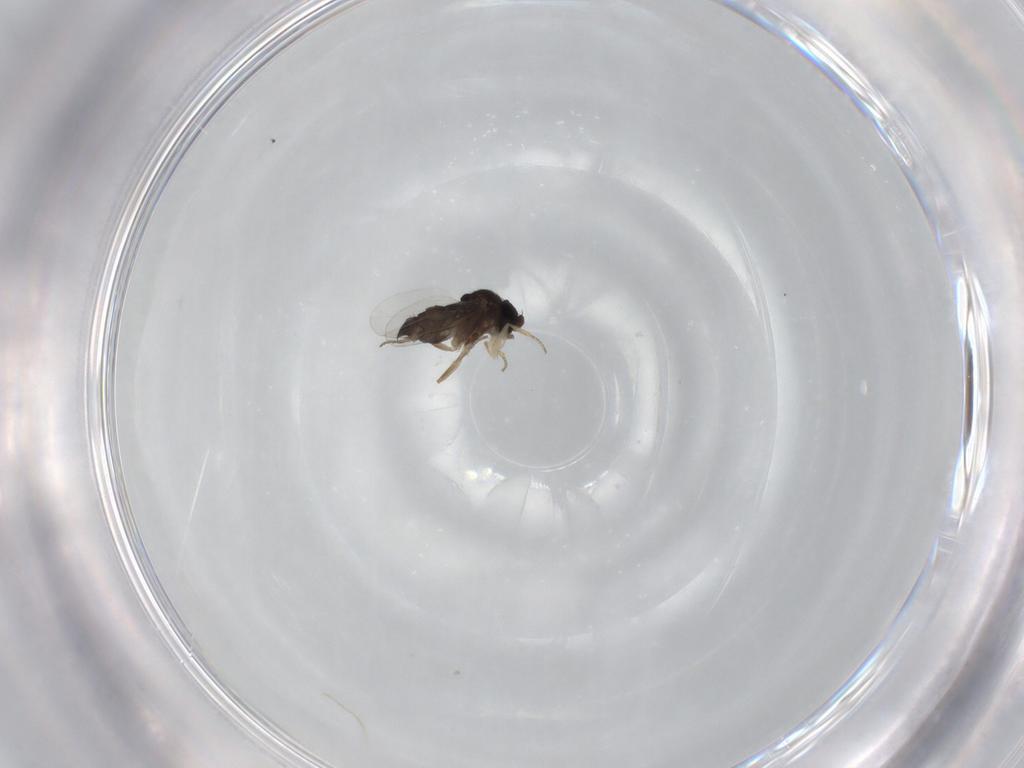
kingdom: Animalia
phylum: Arthropoda
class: Insecta
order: Diptera
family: Phoridae
